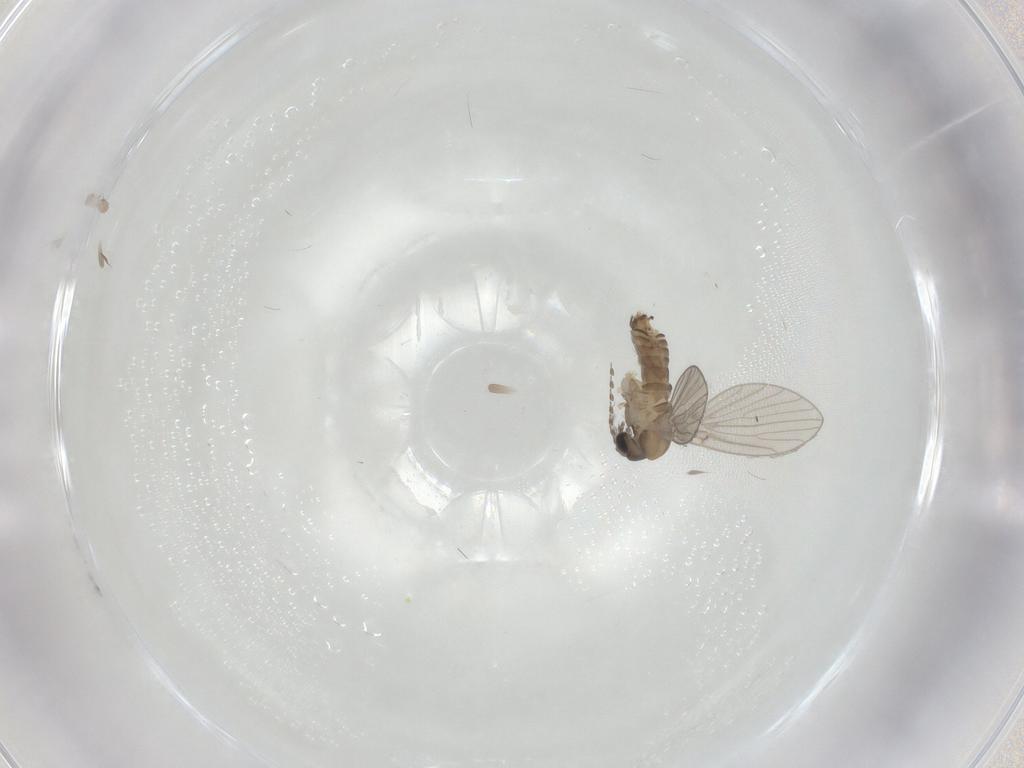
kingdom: Animalia
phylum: Arthropoda
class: Insecta
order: Diptera
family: Psychodidae
